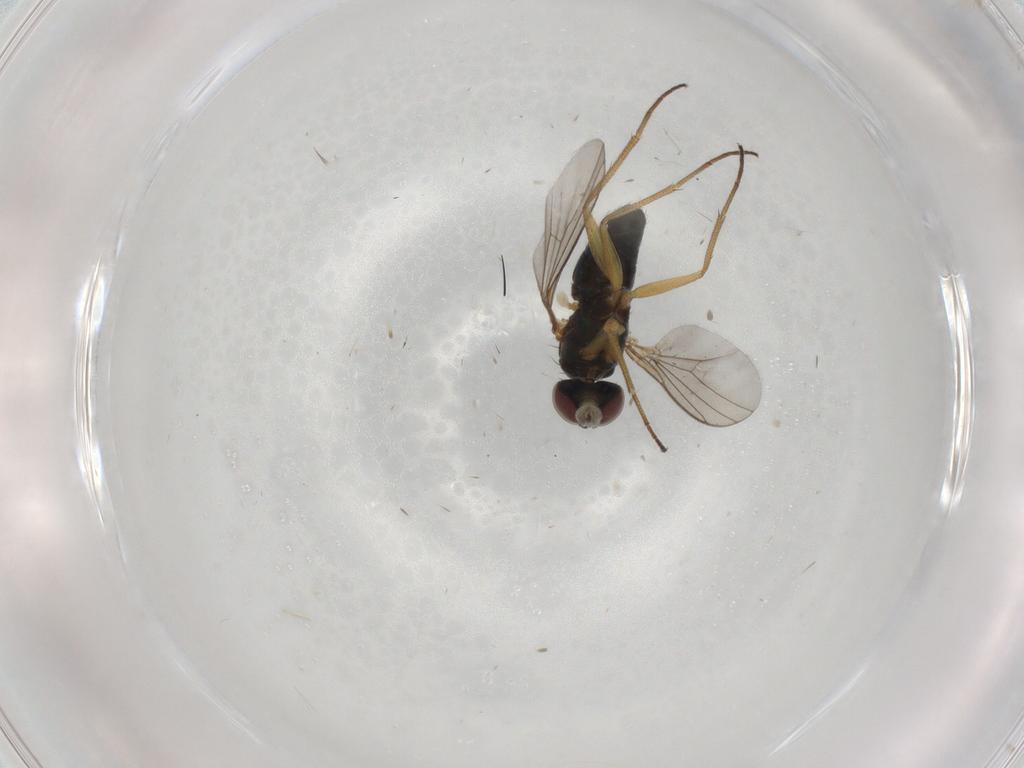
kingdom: Animalia
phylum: Arthropoda
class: Insecta
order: Diptera
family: Dolichopodidae
